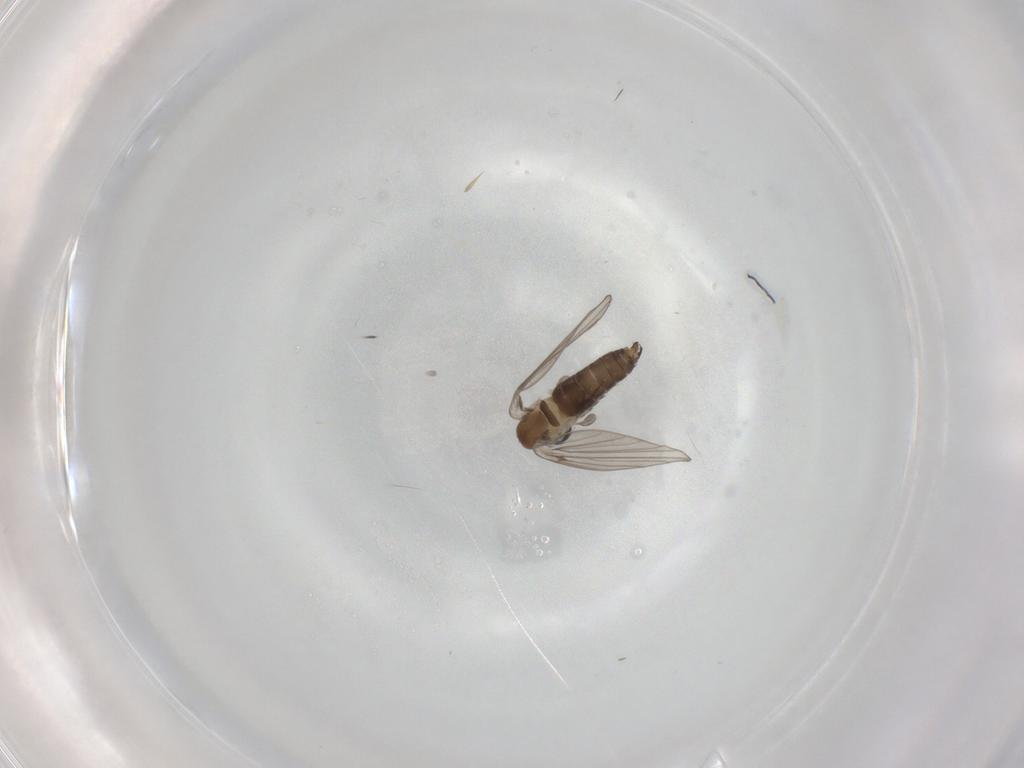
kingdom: Animalia
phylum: Arthropoda
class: Insecta
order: Diptera
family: Psychodidae
